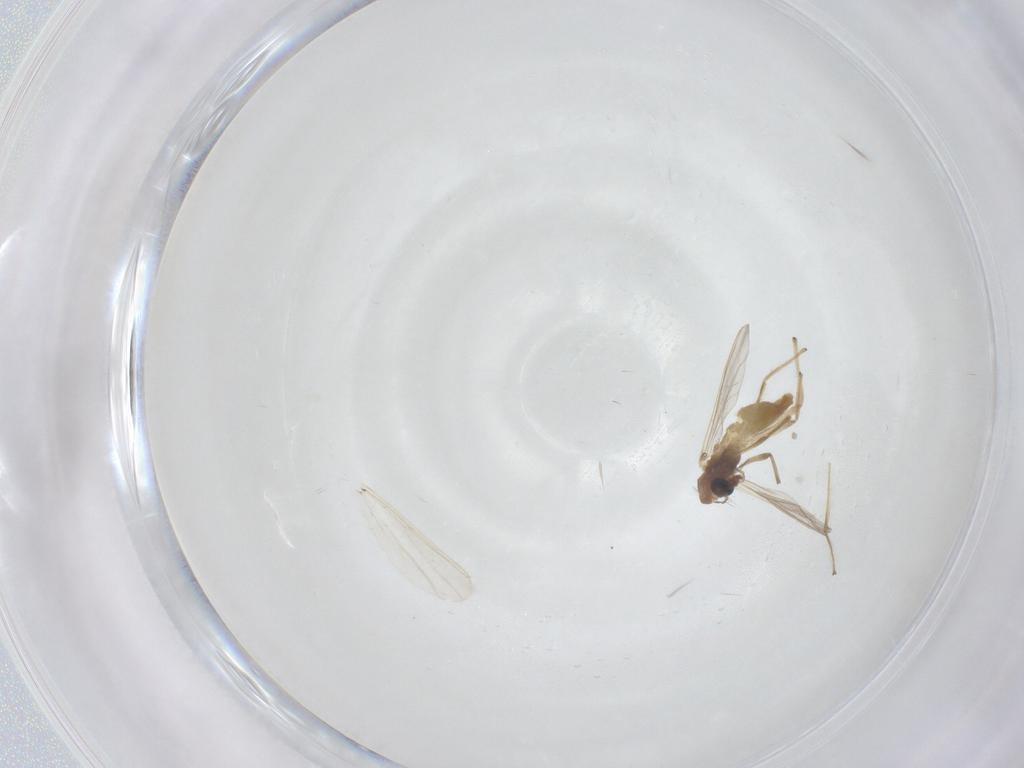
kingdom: Animalia
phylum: Arthropoda
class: Insecta
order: Diptera
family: Chironomidae
